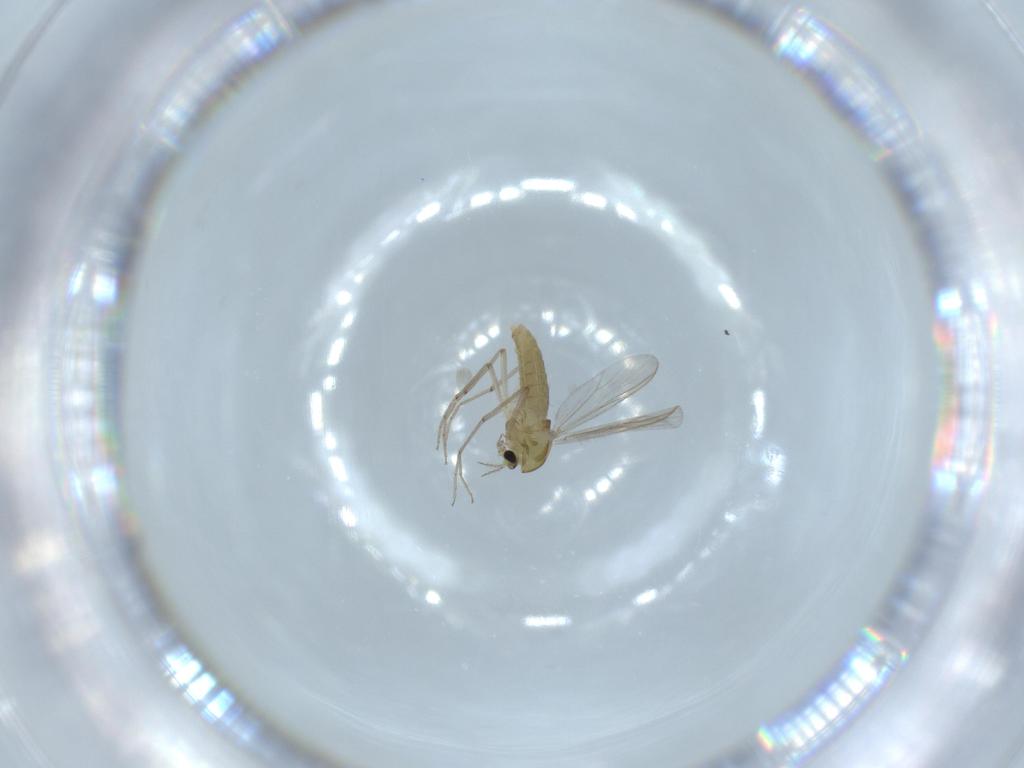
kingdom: Animalia
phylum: Arthropoda
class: Insecta
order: Diptera
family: Chironomidae
